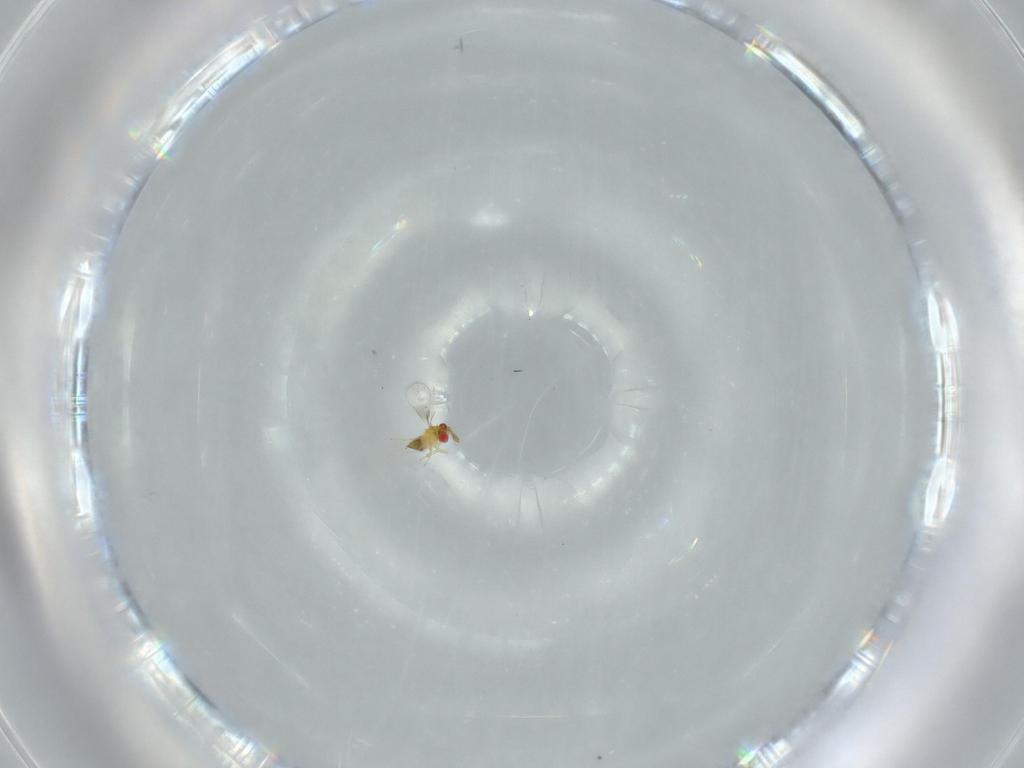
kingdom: Animalia
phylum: Arthropoda
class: Insecta
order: Hymenoptera
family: Trichogrammatidae
